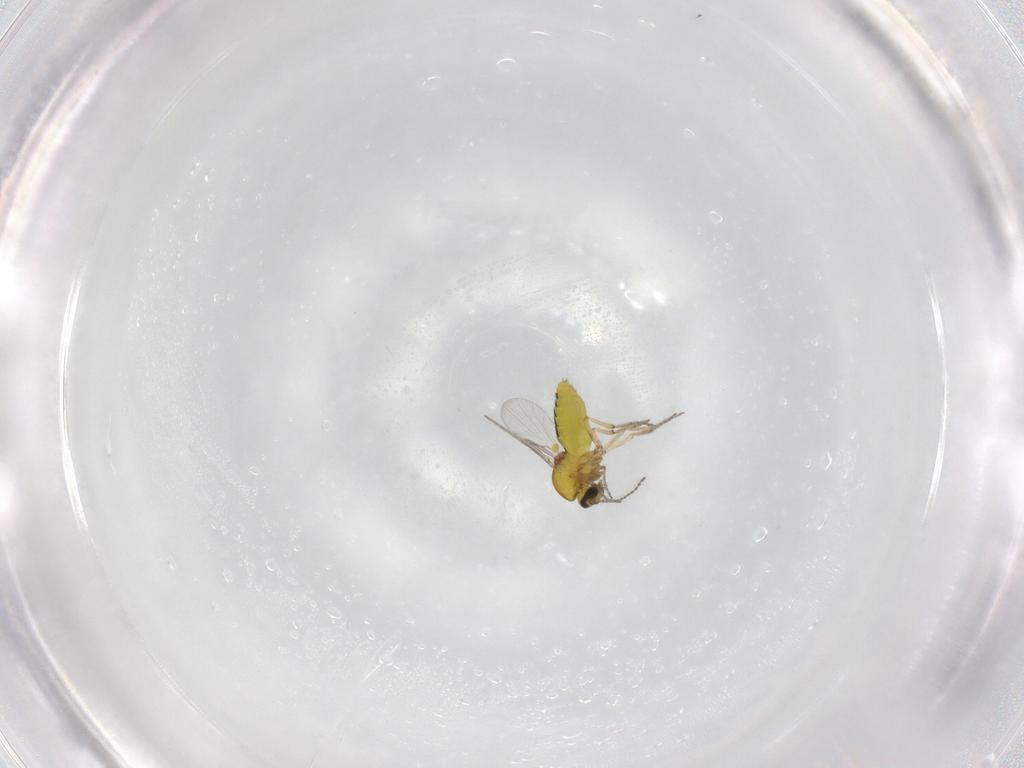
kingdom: Animalia
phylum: Arthropoda
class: Insecta
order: Diptera
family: Ceratopogonidae
